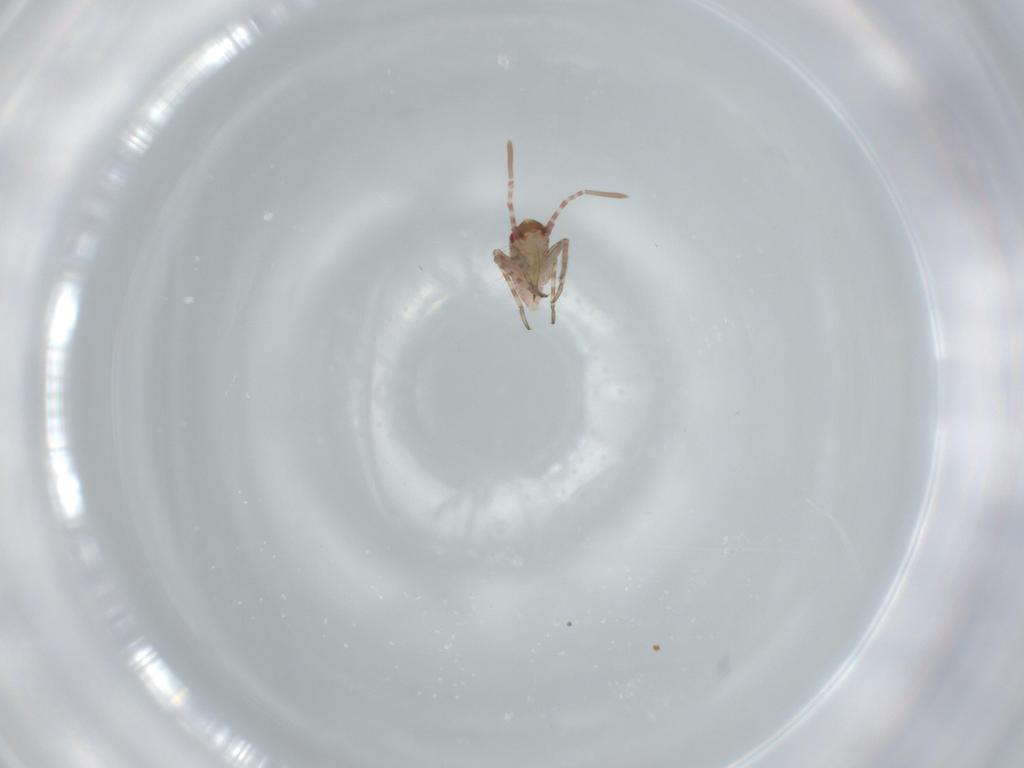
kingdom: Animalia
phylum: Arthropoda
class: Insecta
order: Hemiptera
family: Miridae
